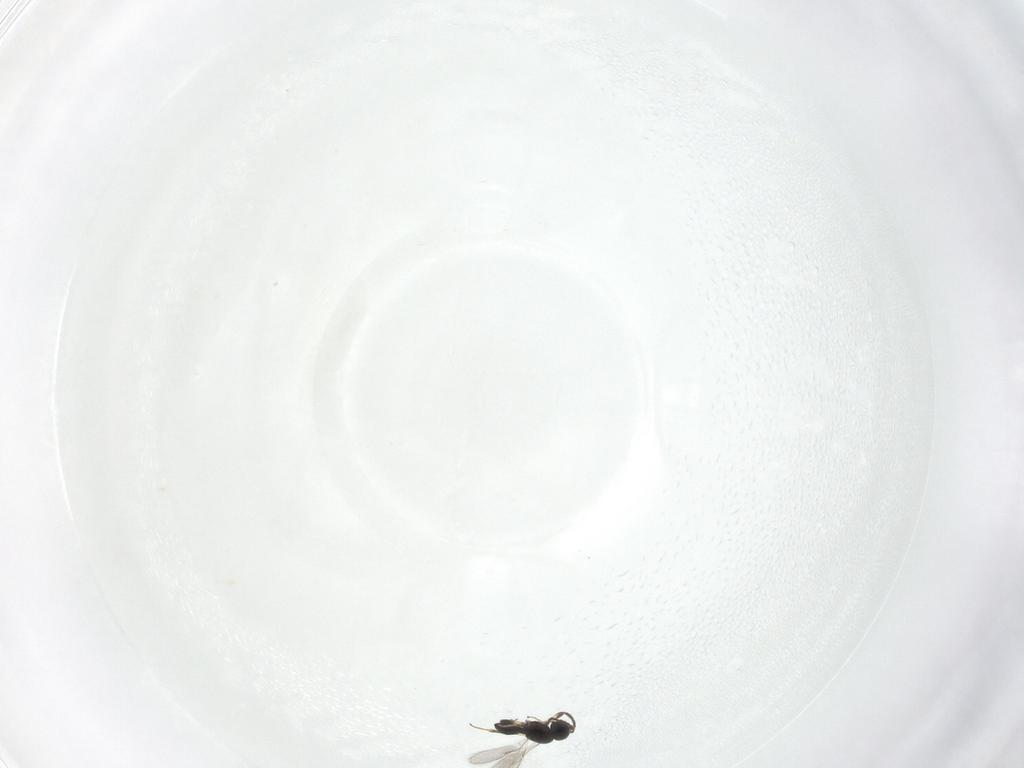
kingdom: Animalia
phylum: Arthropoda
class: Insecta
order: Hymenoptera
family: Scelionidae
